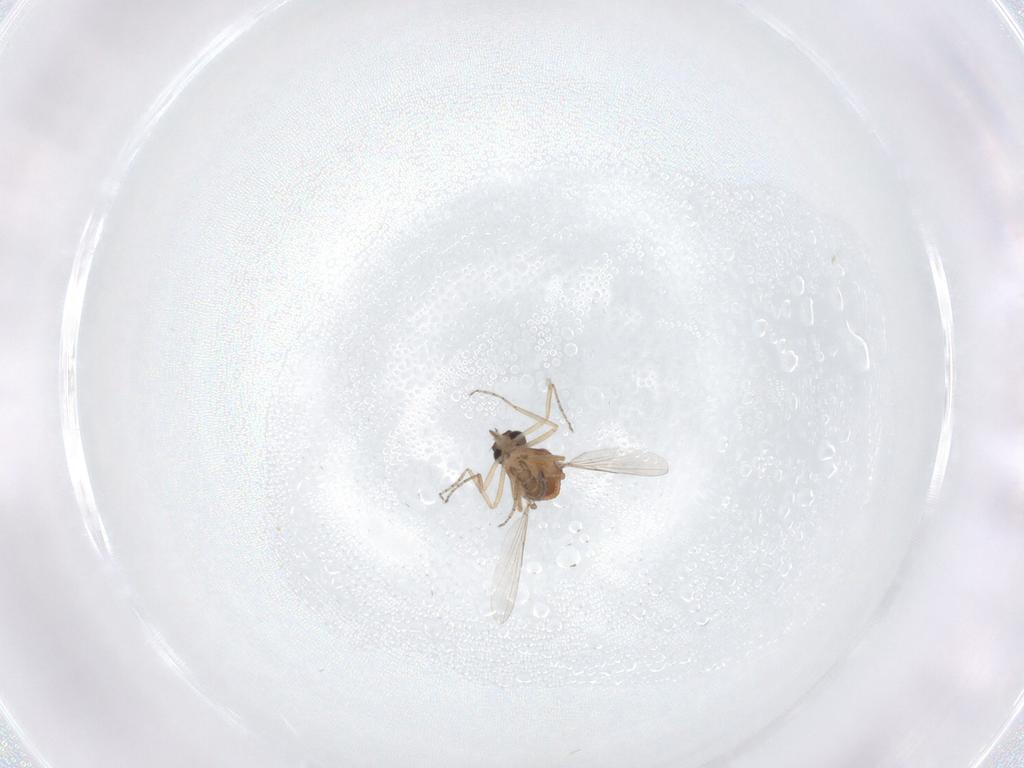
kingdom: Animalia
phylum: Arthropoda
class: Insecta
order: Diptera
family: Ceratopogonidae
